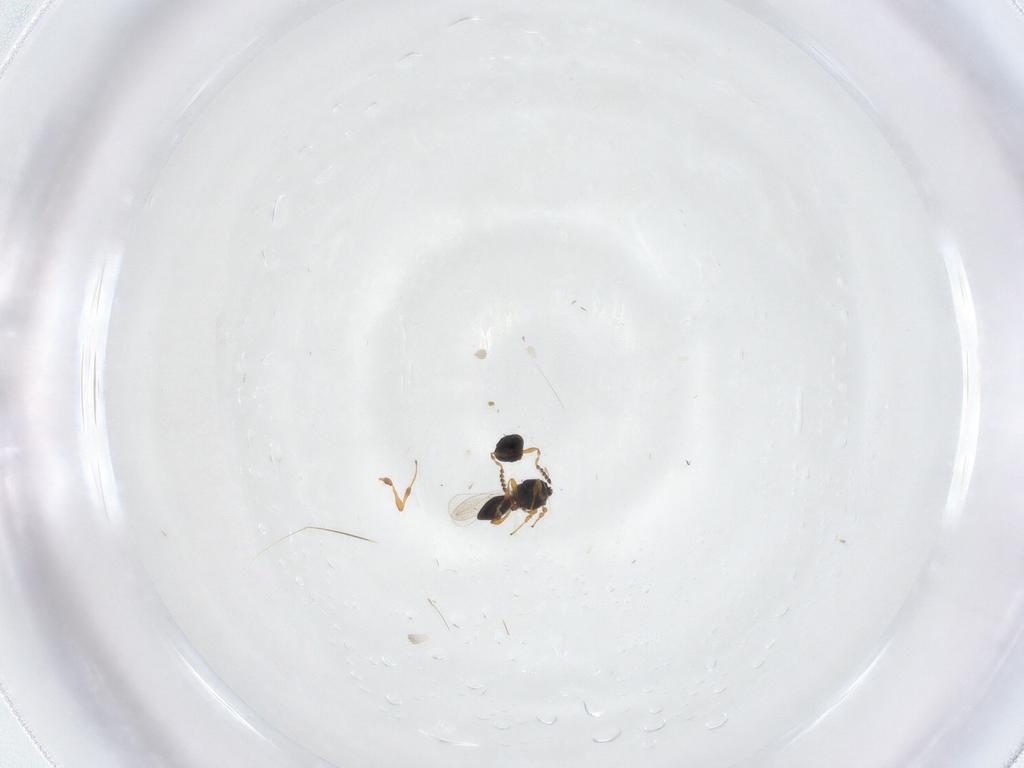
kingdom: Animalia
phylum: Arthropoda
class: Insecta
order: Hymenoptera
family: Platygastridae
